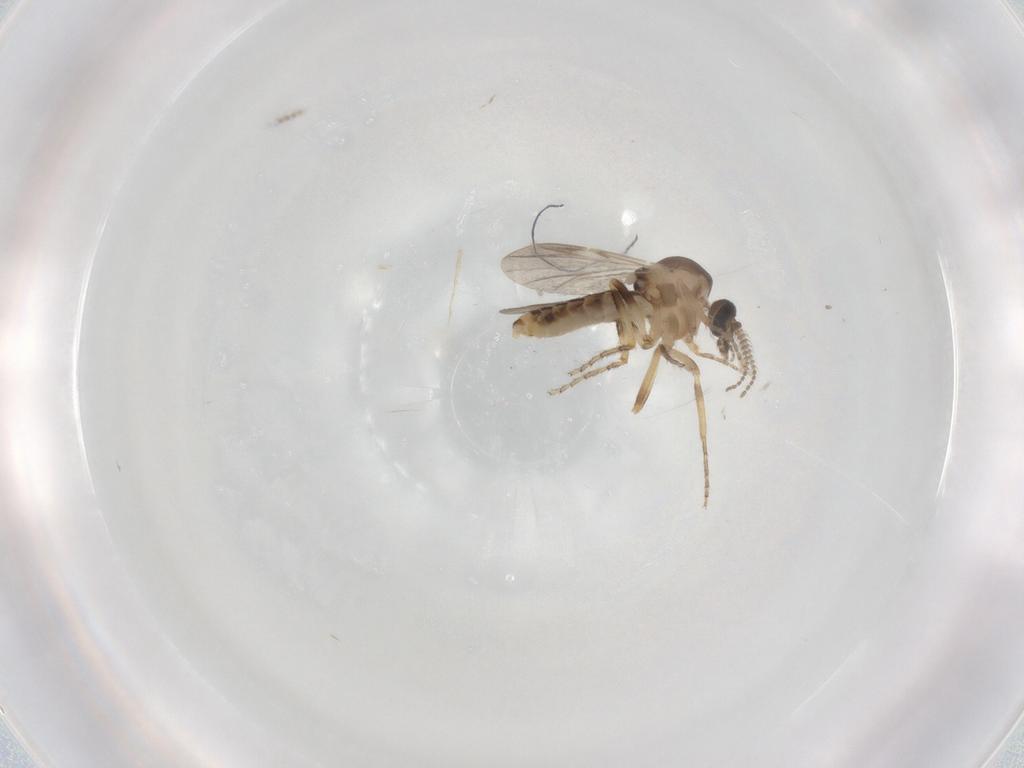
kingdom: Animalia
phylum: Arthropoda
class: Insecta
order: Diptera
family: Ceratopogonidae
